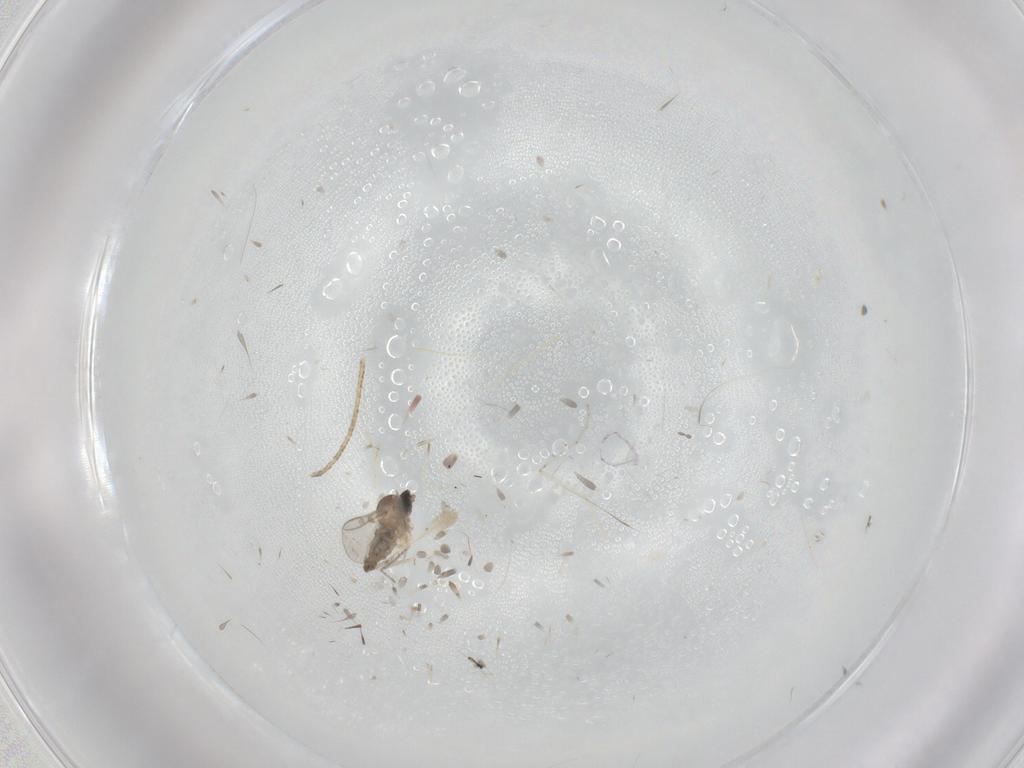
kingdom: Animalia
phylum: Arthropoda
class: Insecta
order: Diptera
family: Cecidomyiidae
